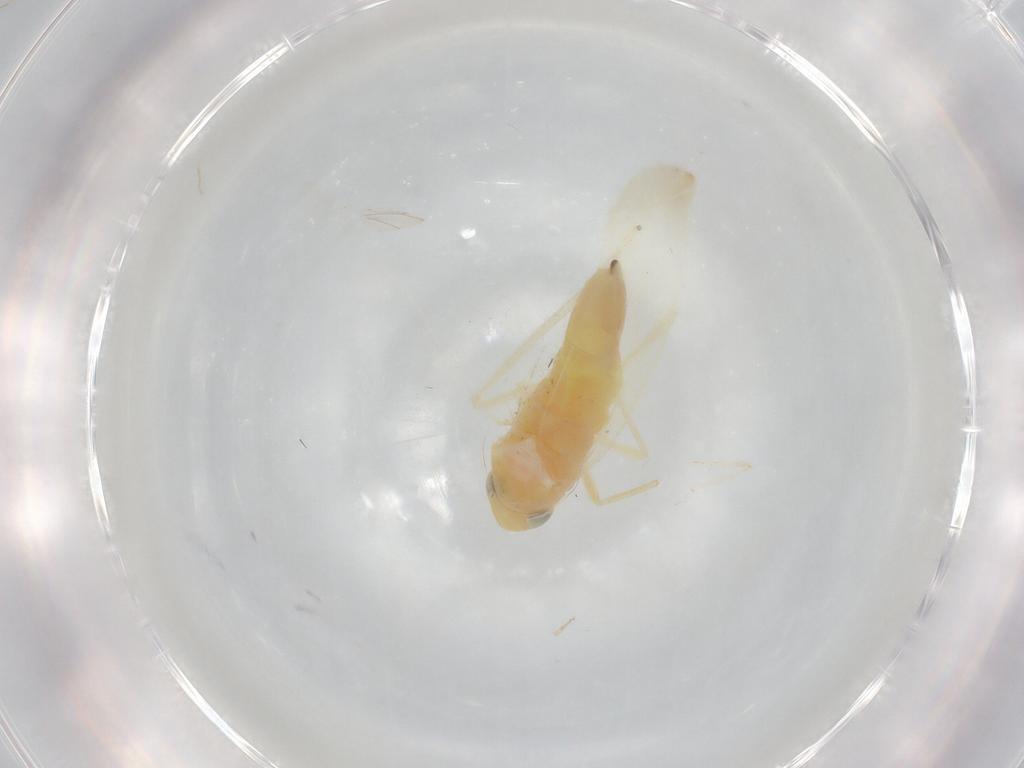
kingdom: Animalia
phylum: Arthropoda
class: Insecta
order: Hemiptera
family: Cicadellidae
